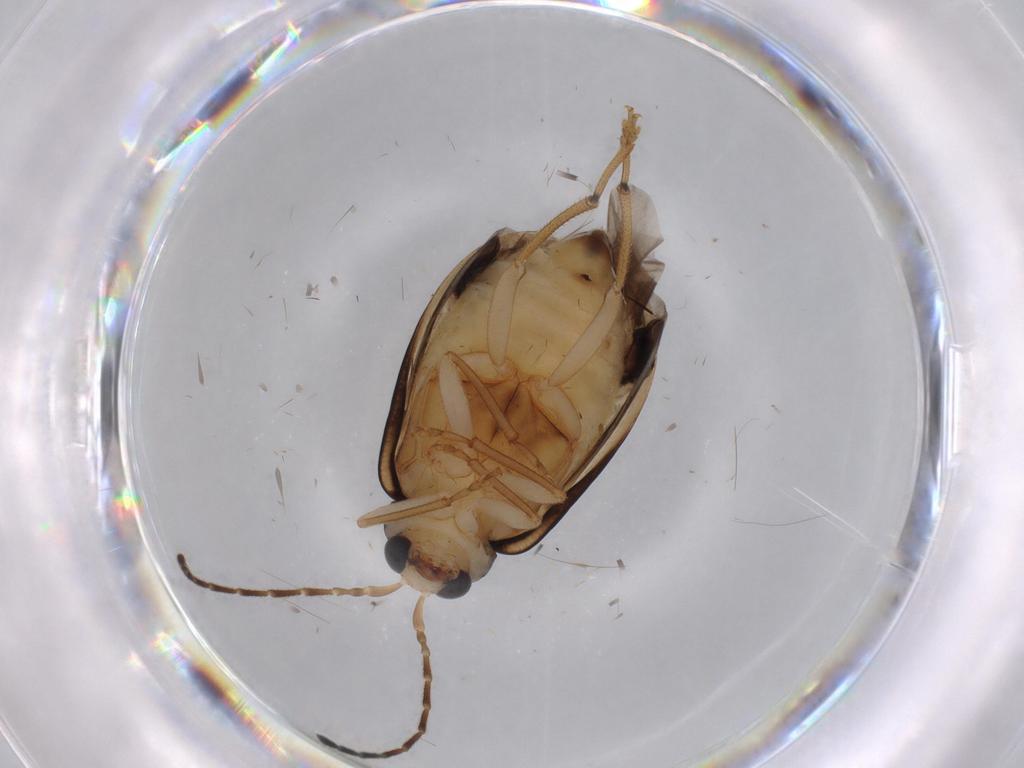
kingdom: Animalia
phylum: Arthropoda
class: Insecta
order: Coleoptera
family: Chrysomelidae
